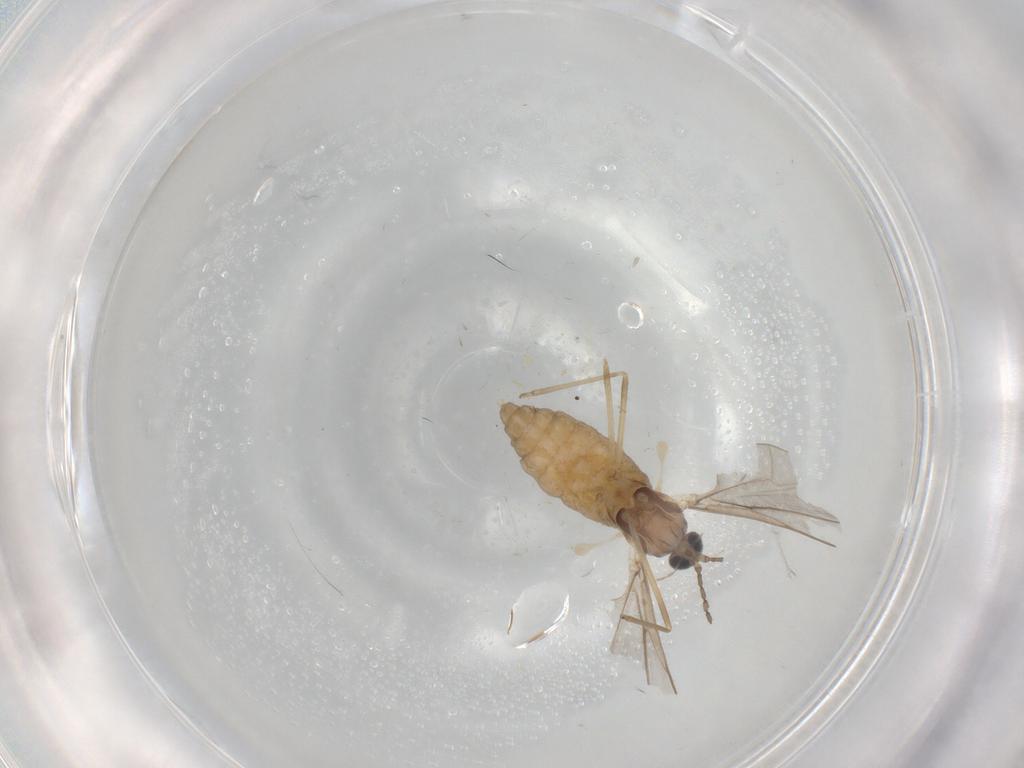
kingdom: Animalia
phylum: Arthropoda
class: Insecta
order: Diptera
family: Cecidomyiidae
